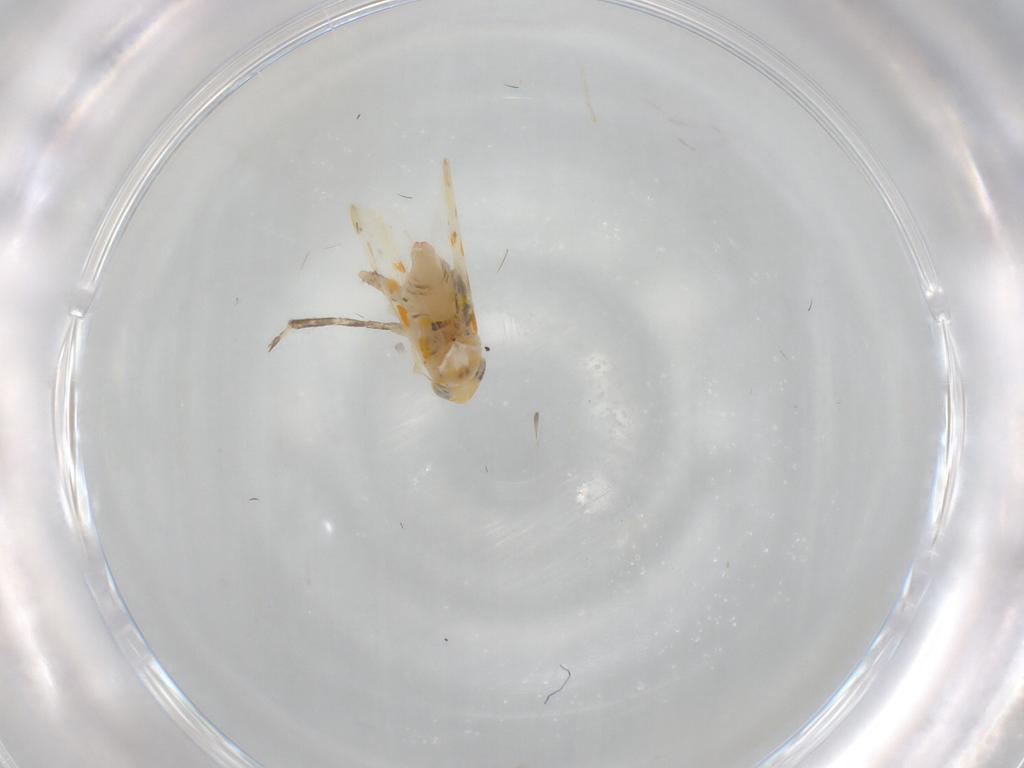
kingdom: Animalia
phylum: Arthropoda
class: Insecta
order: Hemiptera
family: Cicadellidae
